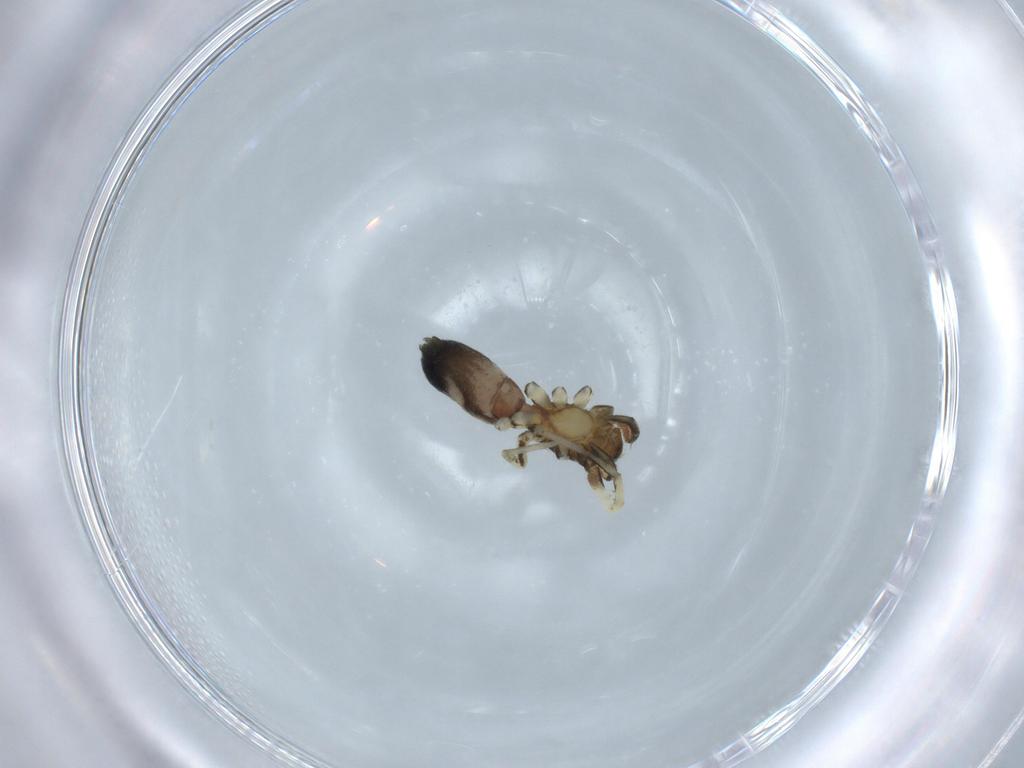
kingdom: Animalia
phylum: Arthropoda
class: Arachnida
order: Araneae
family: Gnaphosidae
